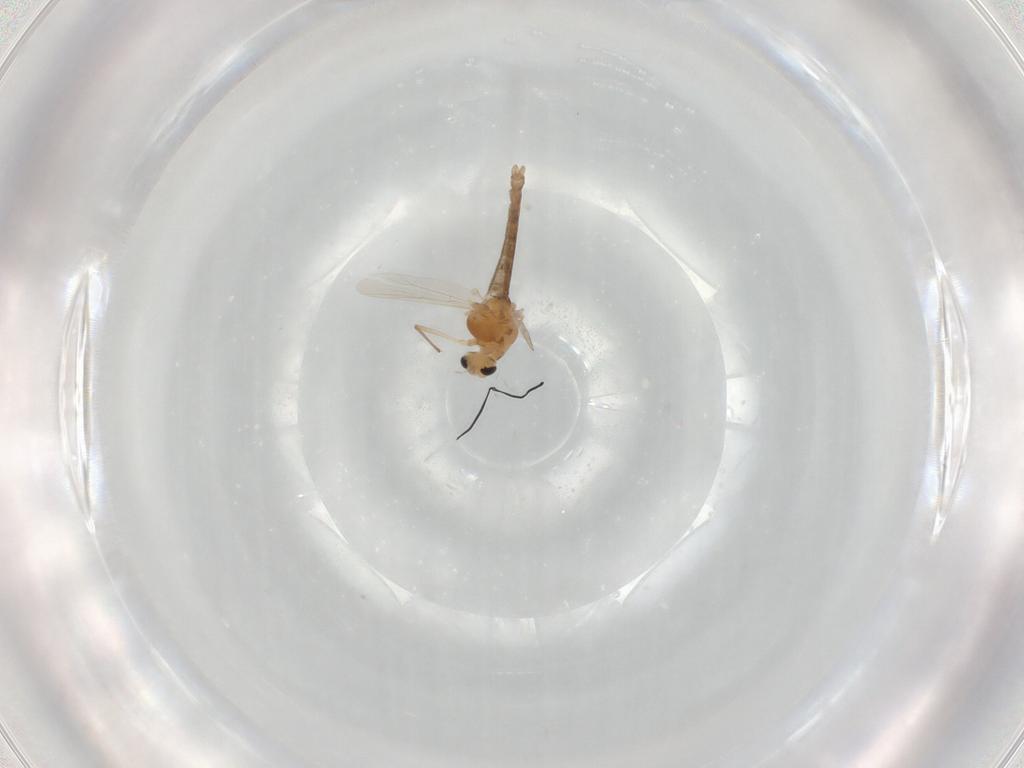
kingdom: Animalia
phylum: Arthropoda
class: Insecta
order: Diptera
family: Chironomidae
